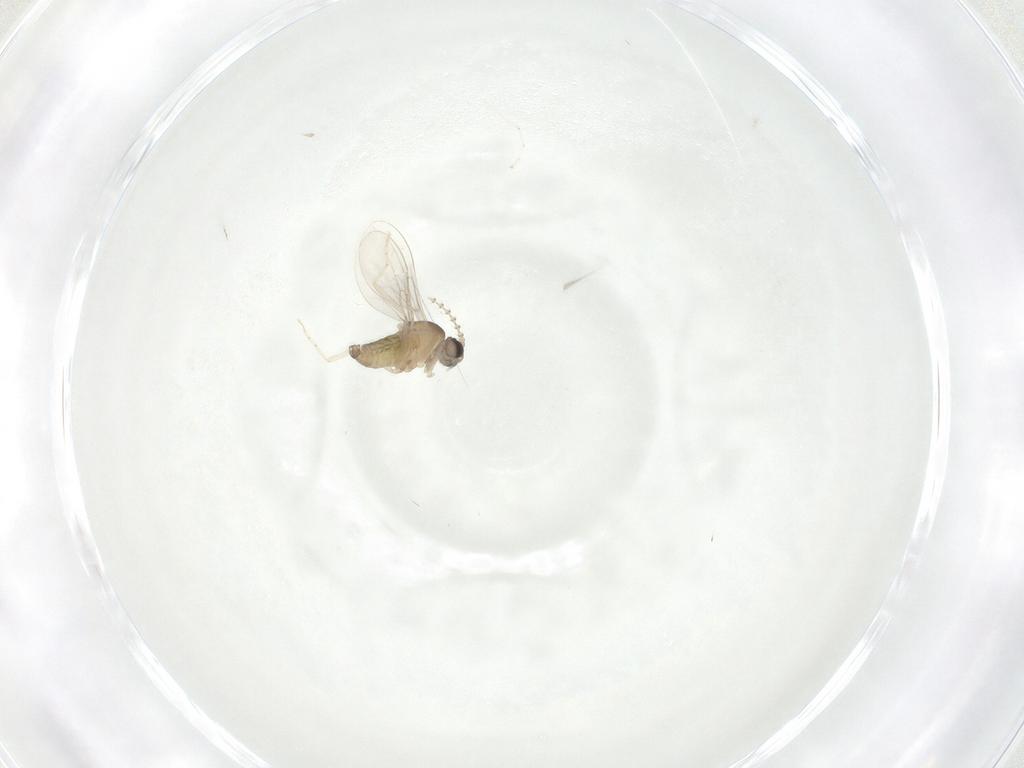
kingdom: Animalia
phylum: Arthropoda
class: Insecta
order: Diptera
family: Cecidomyiidae
